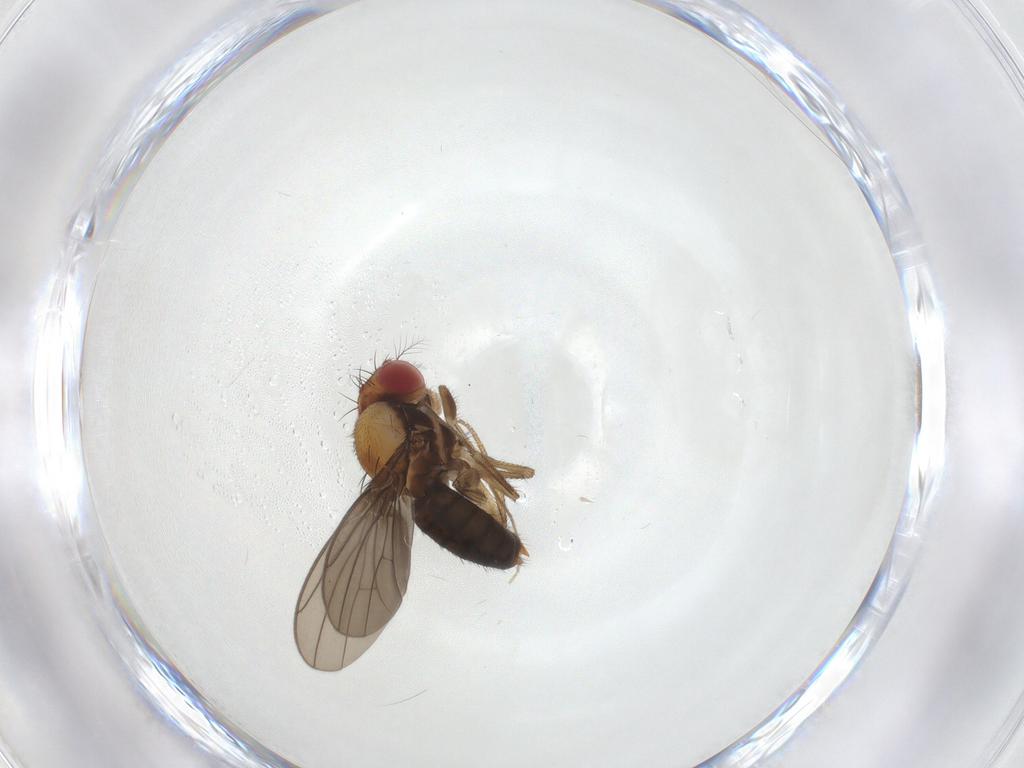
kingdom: Animalia
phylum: Arthropoda
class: Insecta
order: Diptera
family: Drosophilidae
